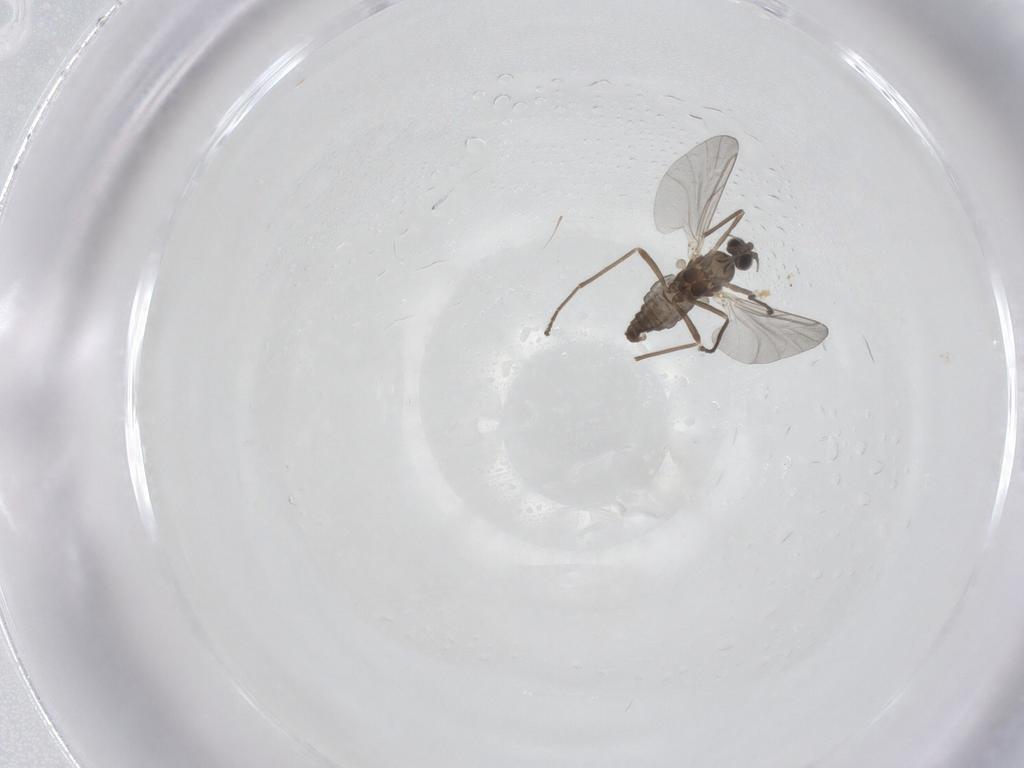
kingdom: Animalia
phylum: Arthropoda
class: Insecta
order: Diptera
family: Cecidomyiidae
